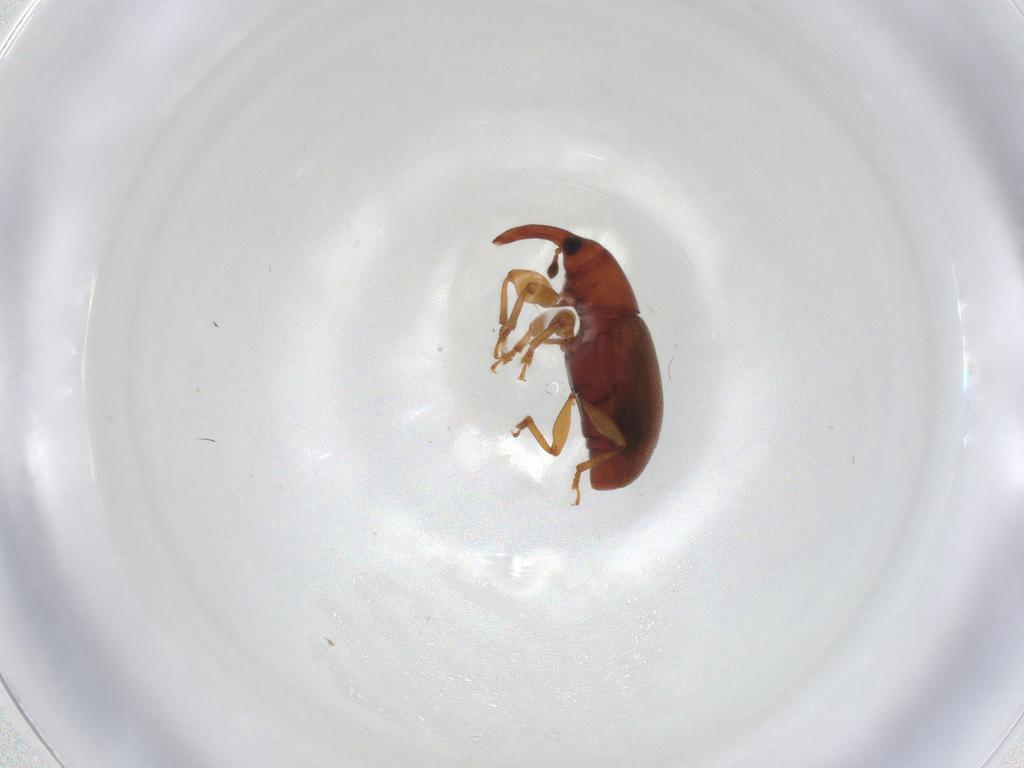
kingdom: Animalia
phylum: Arthropoda
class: Insecta
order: Coleoptera
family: Curculionidae
